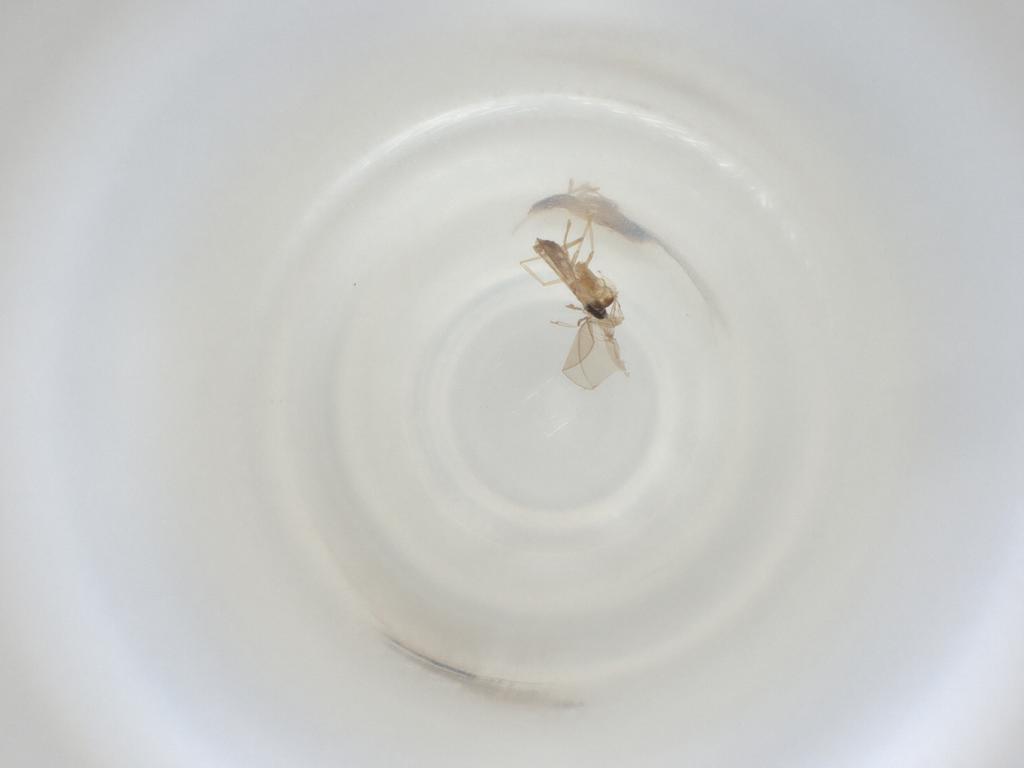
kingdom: Animalia
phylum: Arthropoda
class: Insecta
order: Diptera
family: Cecidomyiidae
